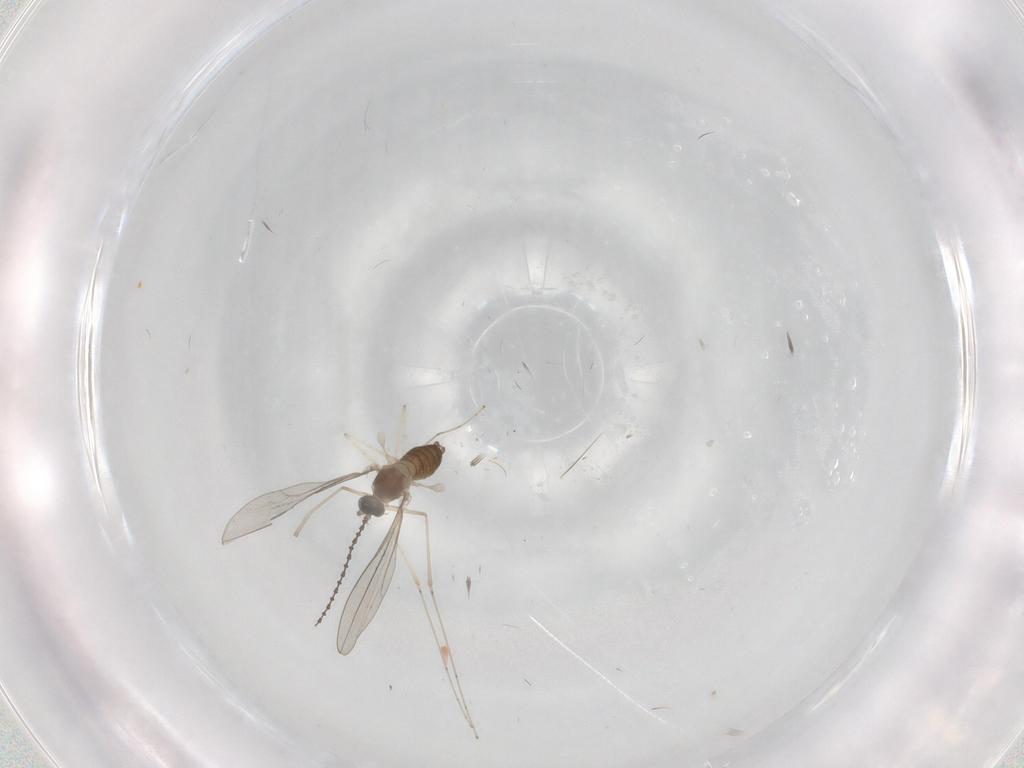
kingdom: Animalia
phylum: Arthropoda
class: Insecta
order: Diptera
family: Cecidomyiidae
